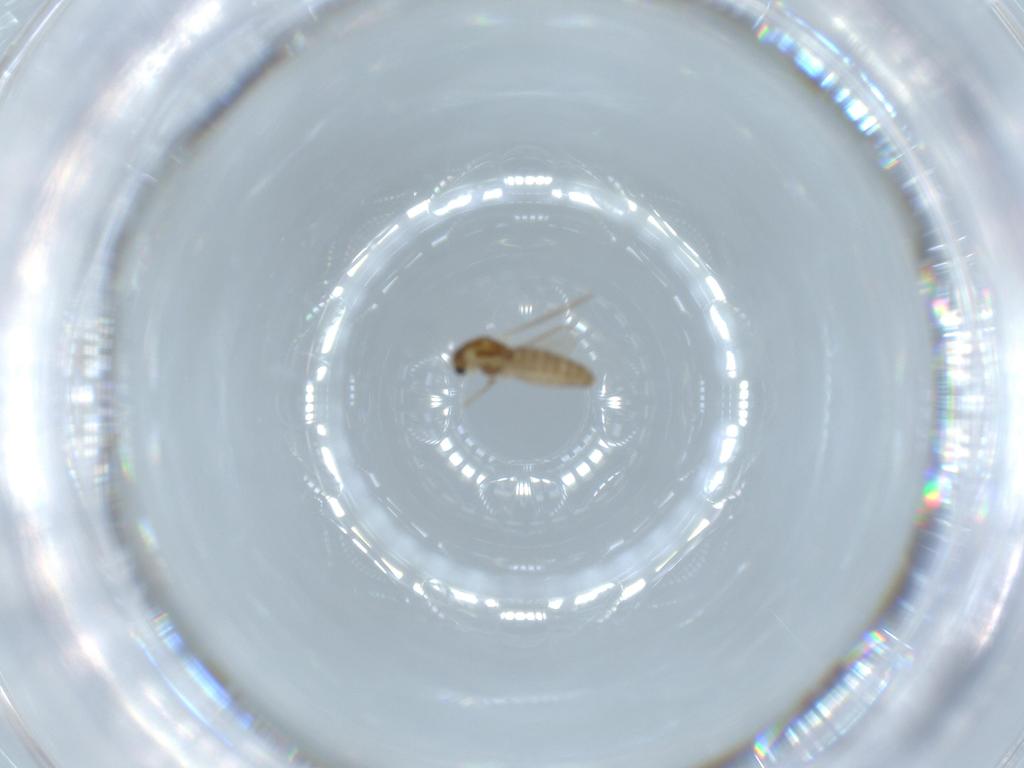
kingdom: Animalia
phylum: Arthropoda
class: Insecta
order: Diptera
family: Chironomidae
